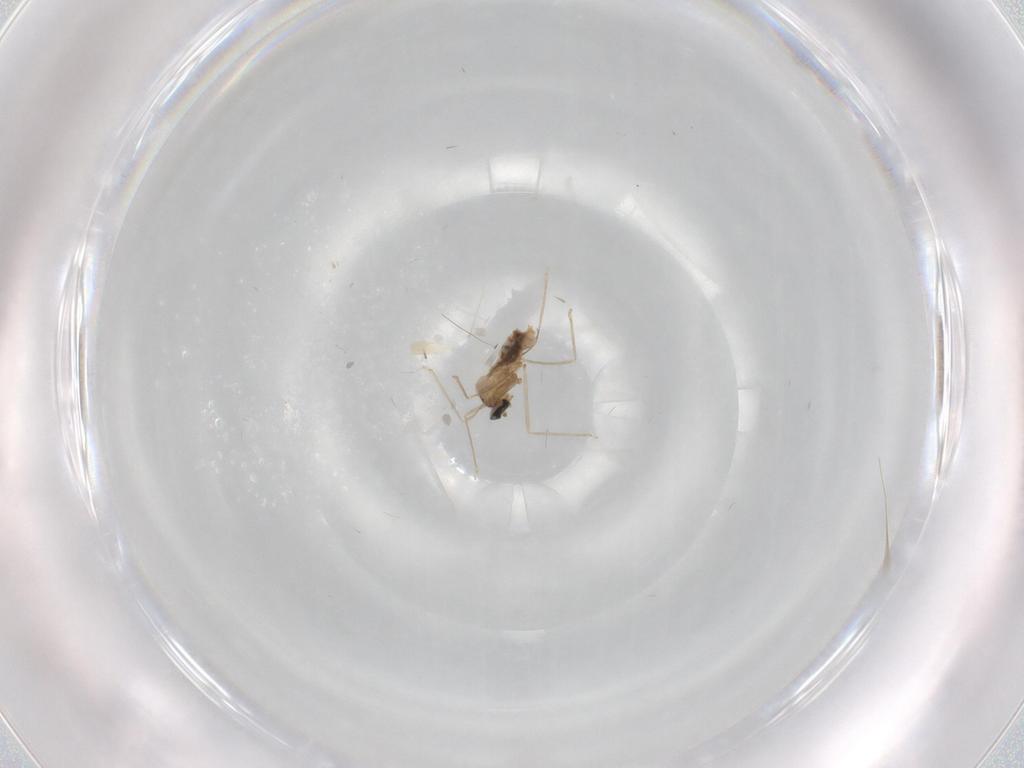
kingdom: Animalia
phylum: Arthropoda
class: Insecta
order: Diptera
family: Cecidomyiidae
